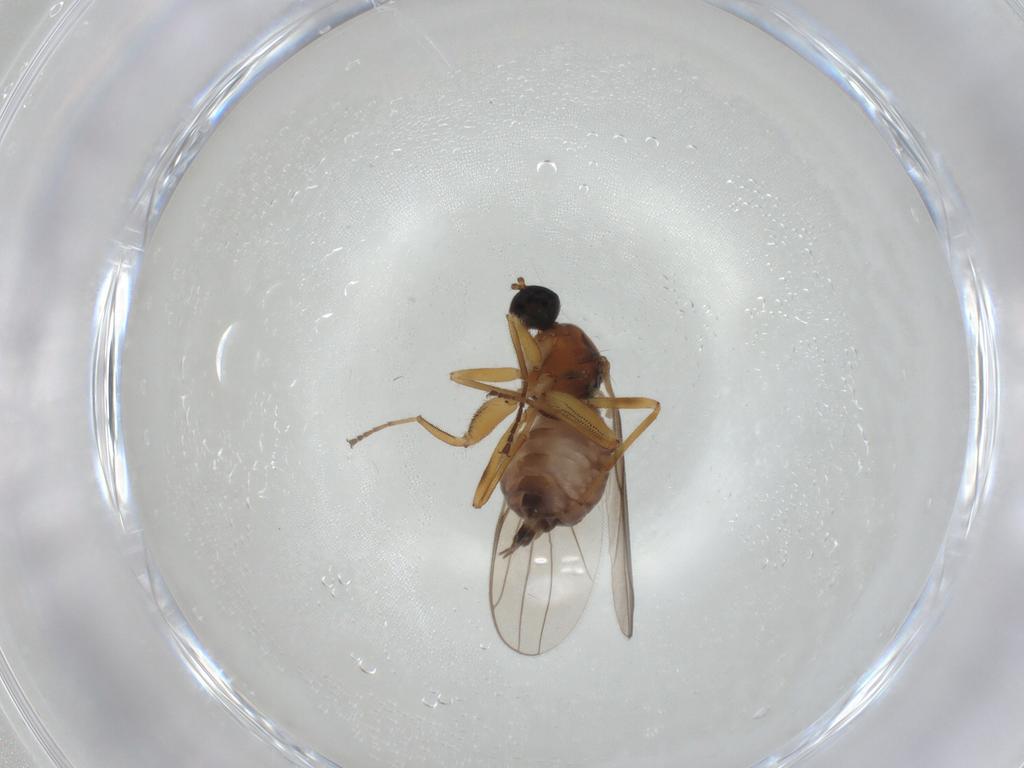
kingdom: Animalia
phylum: Arthropoda
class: Insecta
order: Diptera
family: Hybotidae
